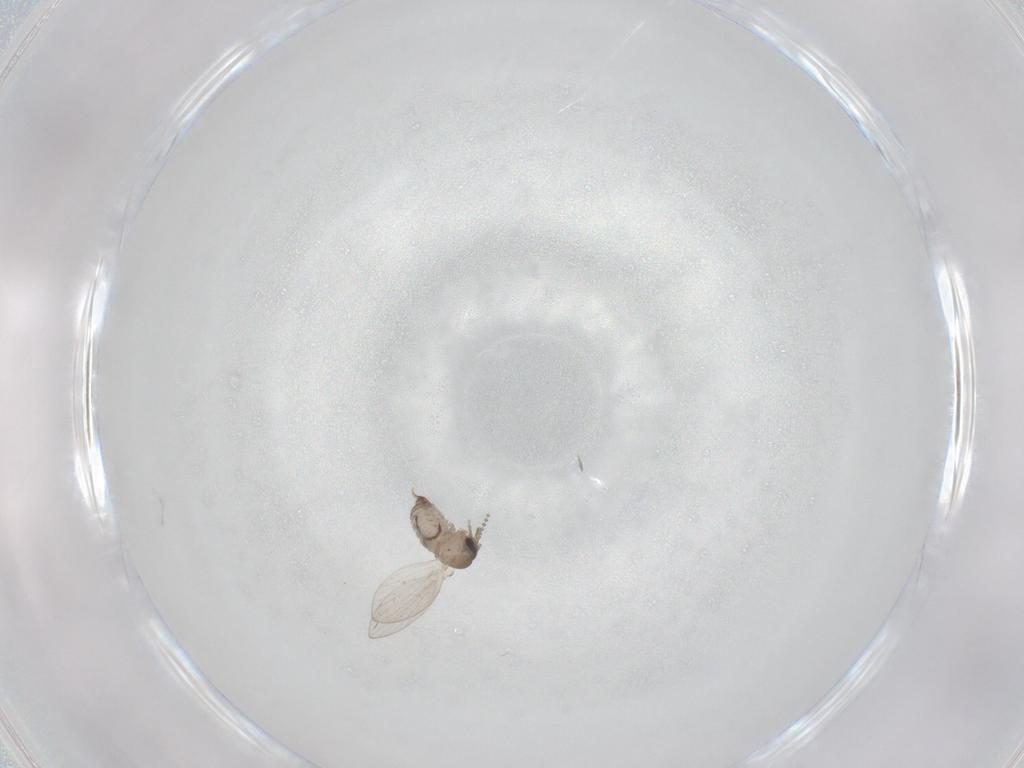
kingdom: Animalia
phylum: Arthropoda
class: Insecta
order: Diptera
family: Psychodidae
